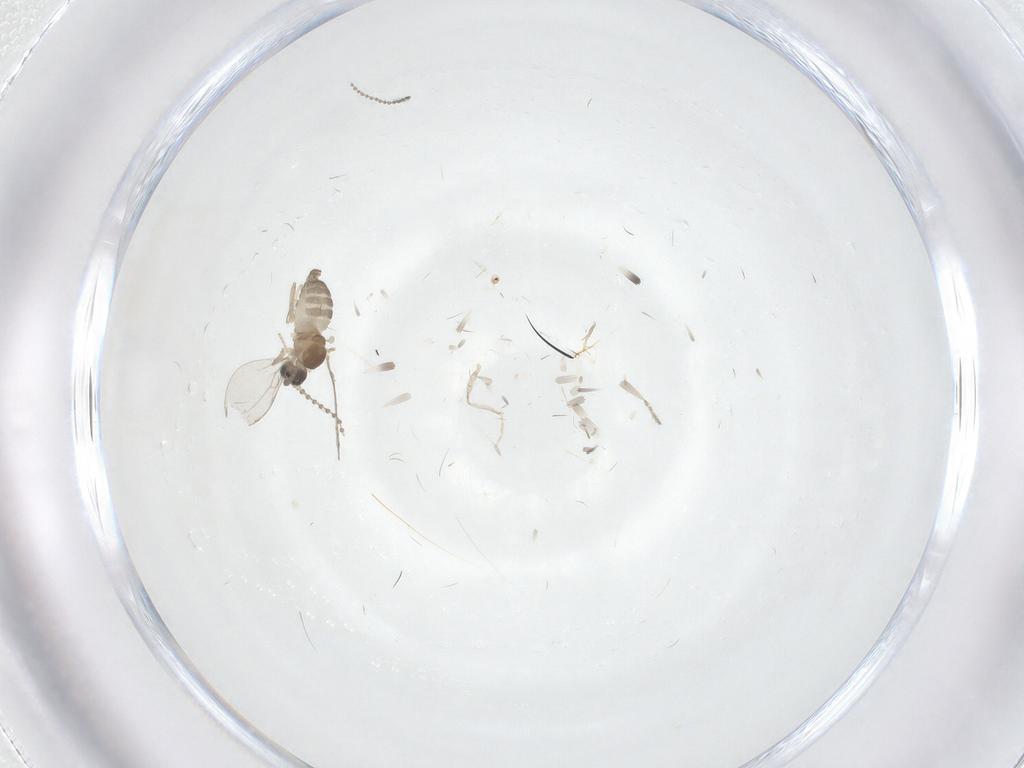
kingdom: Animalia
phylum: Arthropoda
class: Insecta
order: Diptera
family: Cecidomyiidae
